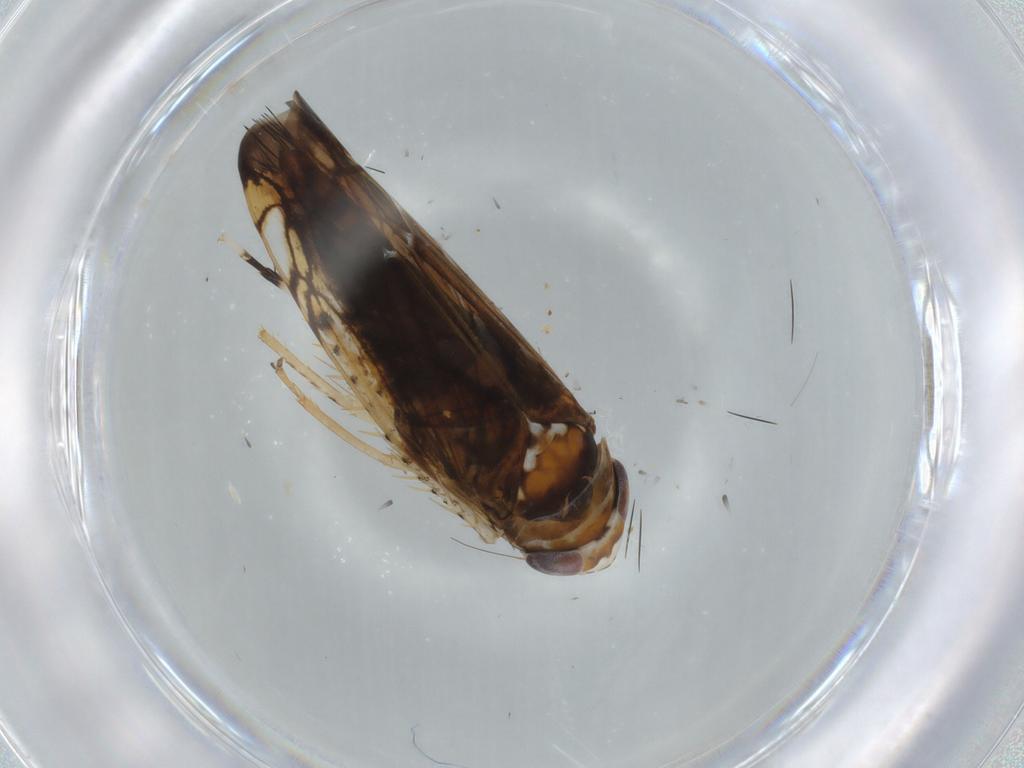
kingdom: Animalia
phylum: Arthropoda
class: Insecta
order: Hemiptera
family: Cicadellidae
